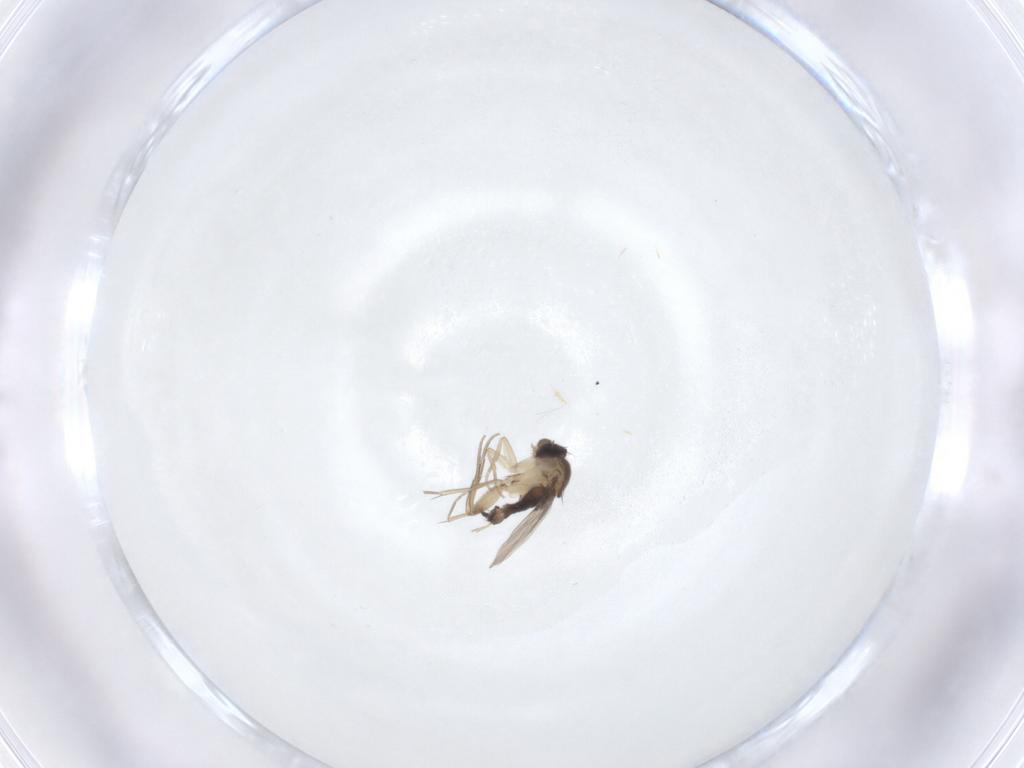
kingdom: Animalia
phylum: Arthropoda
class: Insecta
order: Diptera
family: Phoridae
